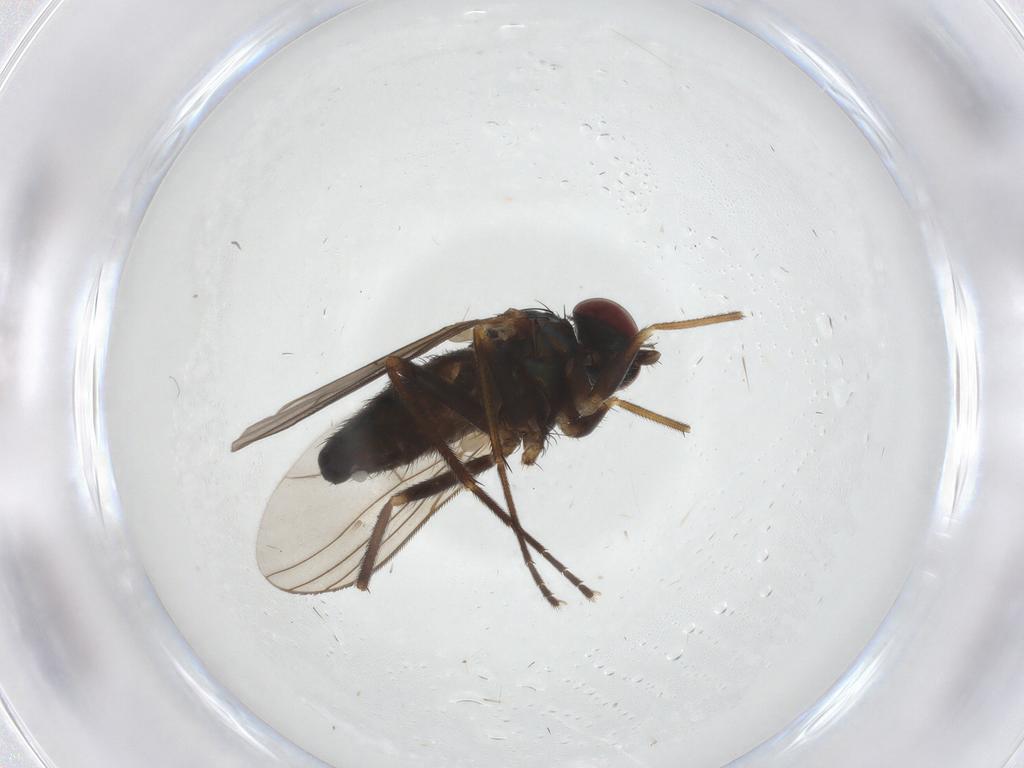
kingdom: Animalia
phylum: Arthropoda
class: Insecta
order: Diptera
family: Dolichopodidae
